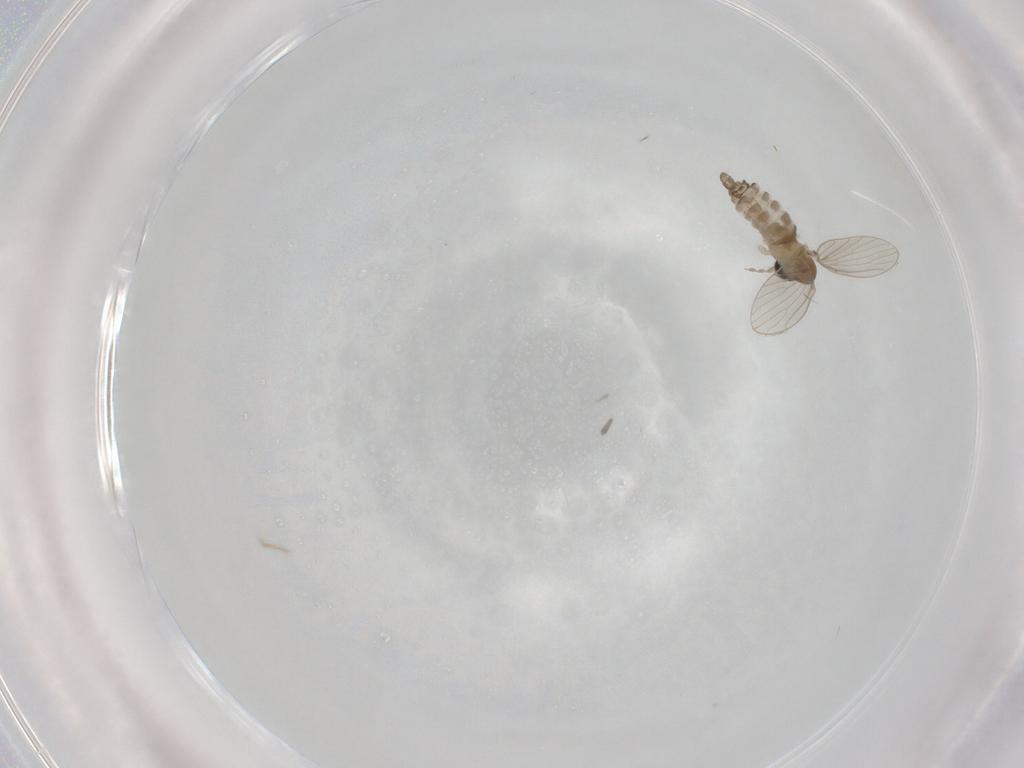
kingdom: Animalia
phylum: Arthropoda
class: Insecta
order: Diptera
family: Psychodidae
